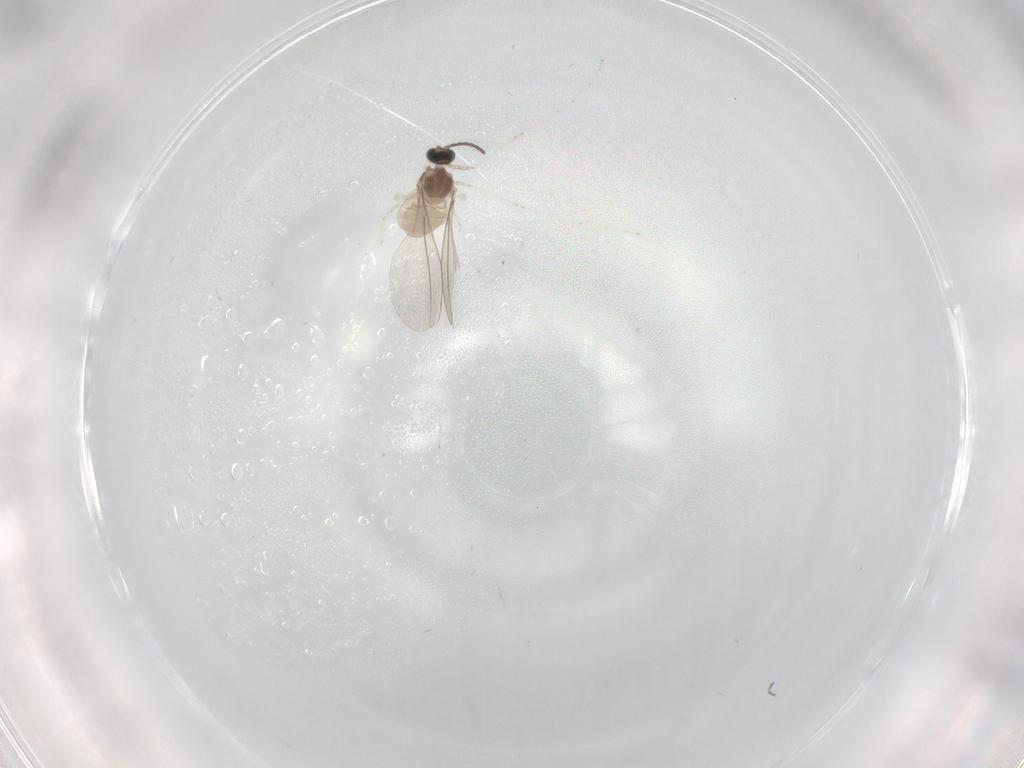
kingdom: Animalia
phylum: Arthropoda
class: Insecta
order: Diptera
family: Cecidomyiidae
